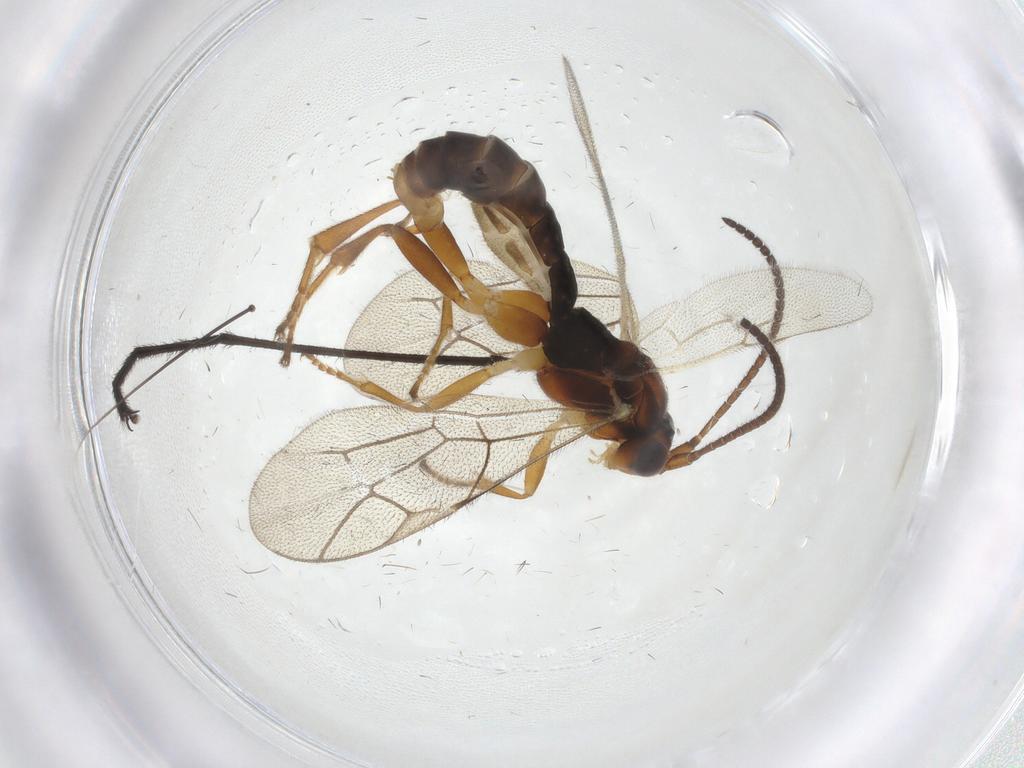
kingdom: Animalia
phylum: Arthropoda
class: Insecta
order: Hymenoptera
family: Ichneumonidae
